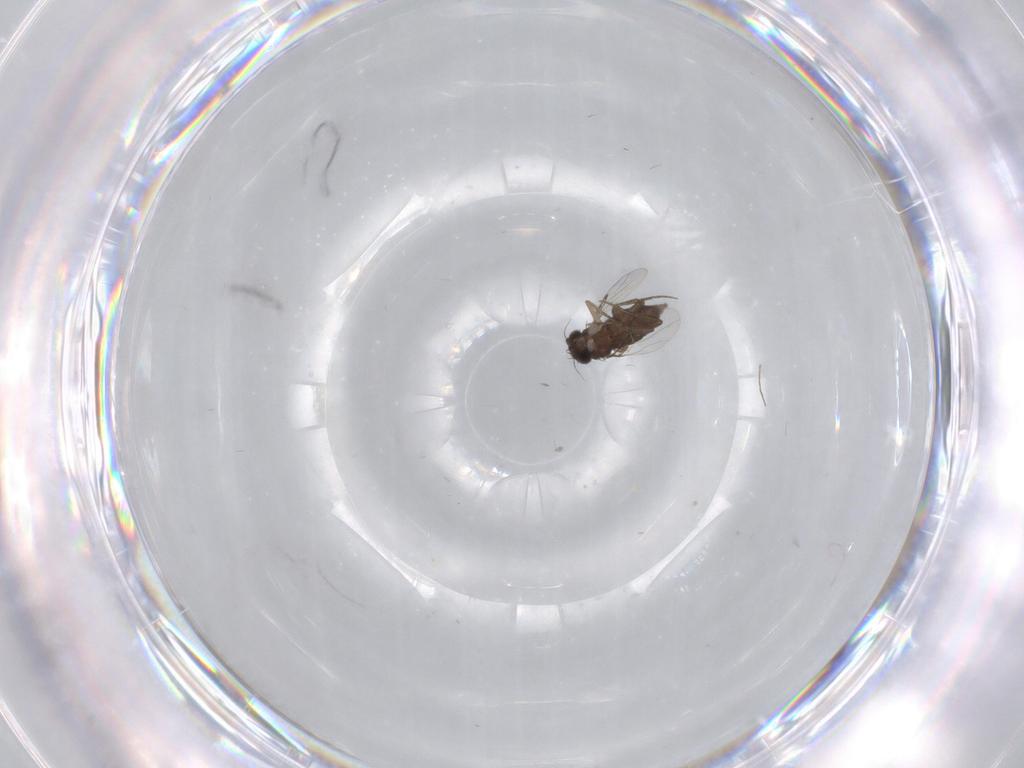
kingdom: Animalia
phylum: Arthropoda
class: Insecta
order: Diptera
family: Phoridae
